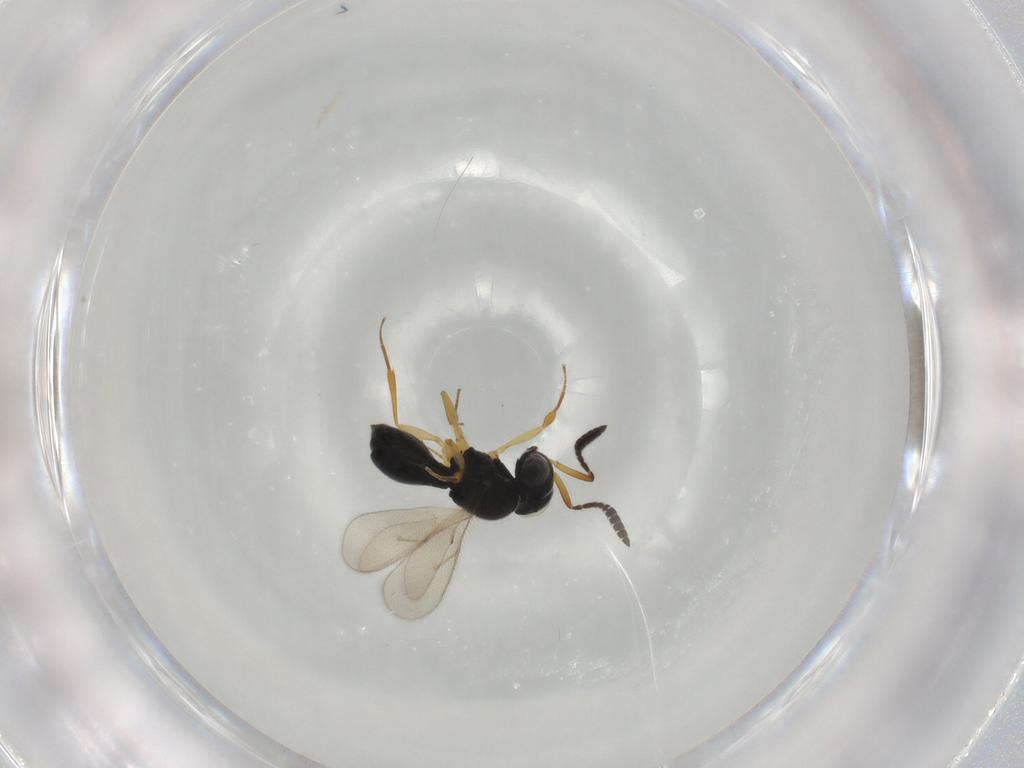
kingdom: Animalia
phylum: Arthropoda
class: Insecta
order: Hymenoptera
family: Scelionidae
